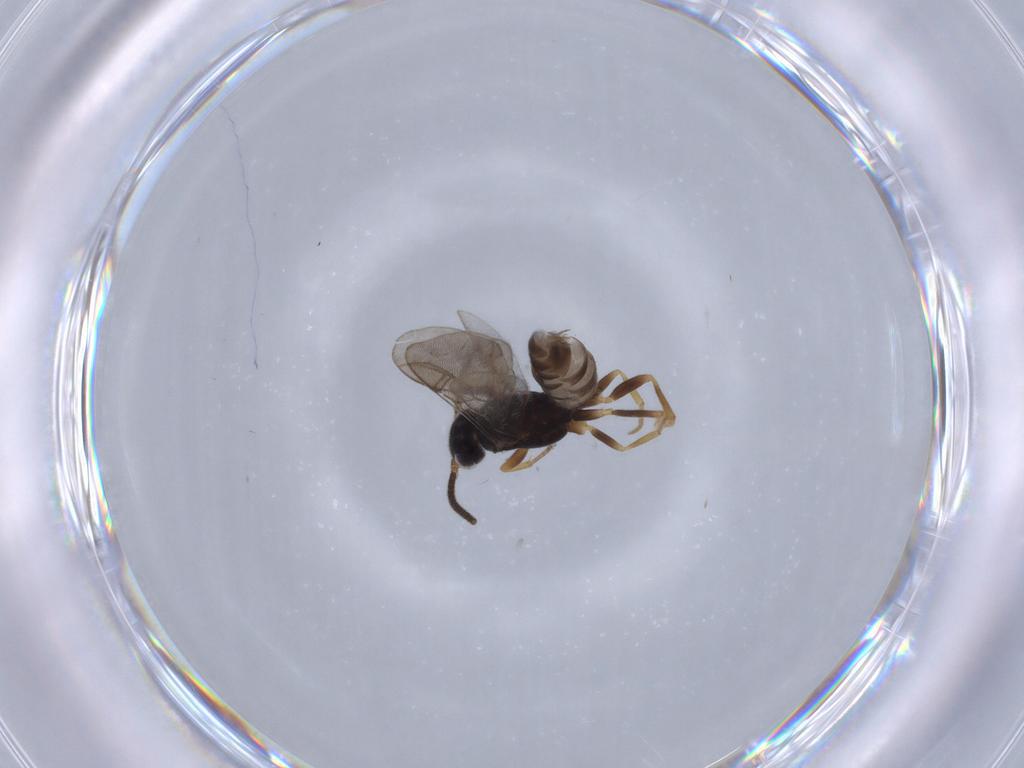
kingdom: Animalia
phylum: Arthropoda
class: Insecta
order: Hymenoptera
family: Sclerogibbidae
